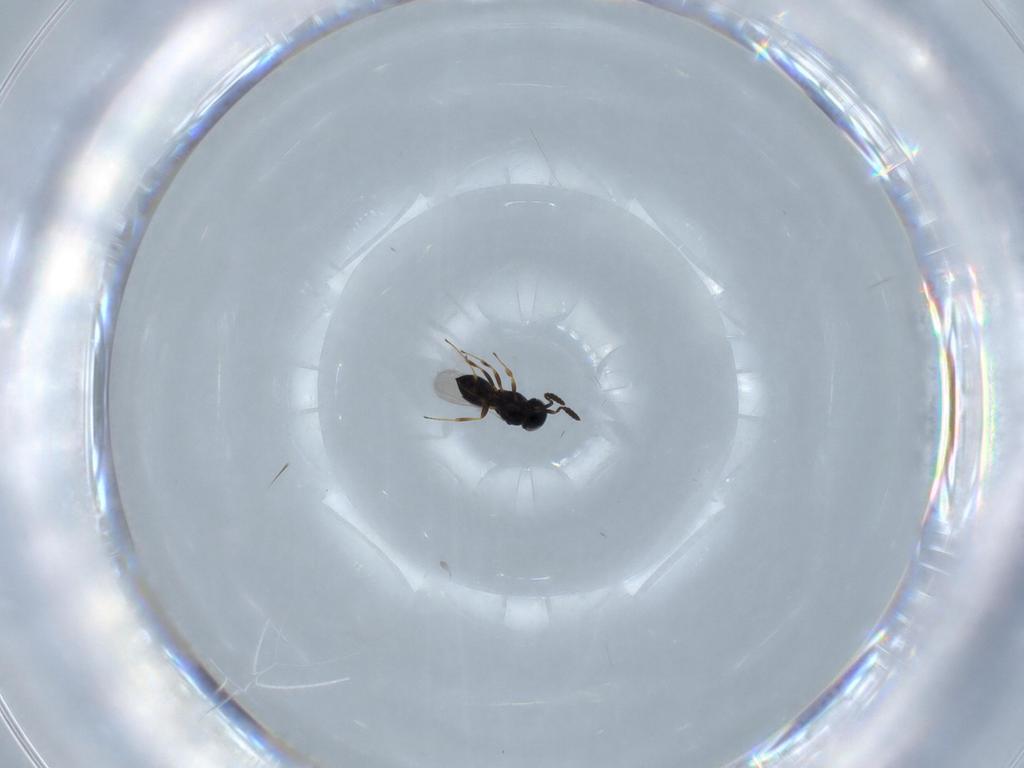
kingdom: Animalia
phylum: Arthropoda
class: Insecta
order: Hymenoptera
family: Scelionidae
